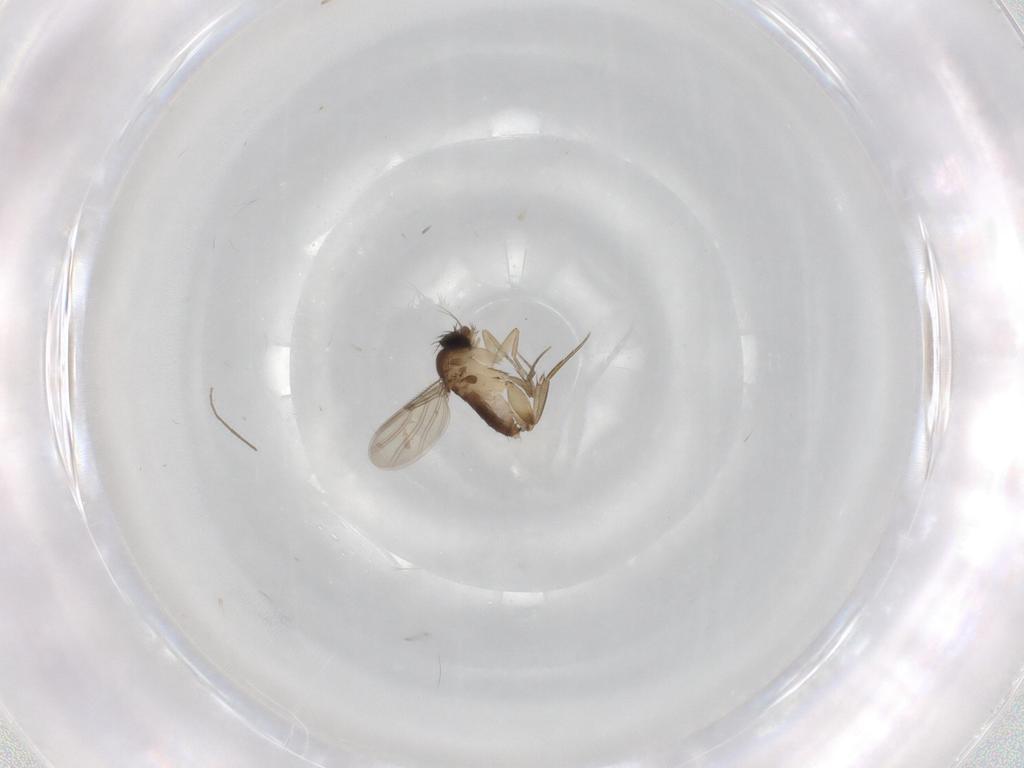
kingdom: Animalia
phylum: Arthropoda
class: Insecta
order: Diptera
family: Phoridae
